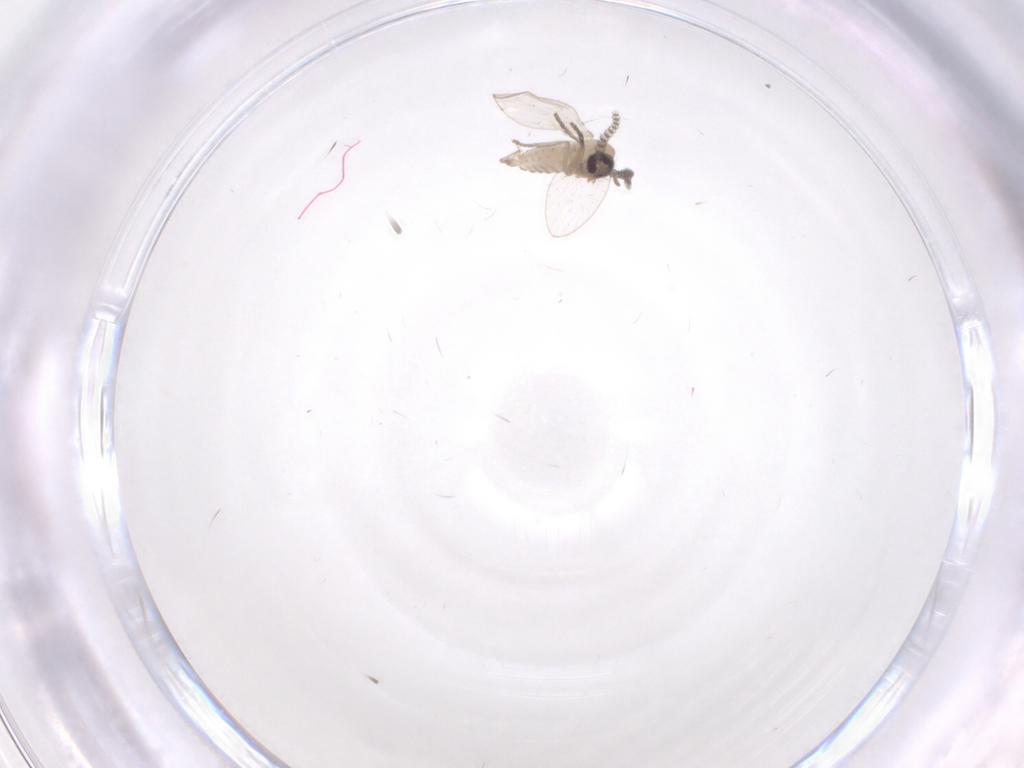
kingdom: Animalia
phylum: Arthropoda
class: Insecta
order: Diptera
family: Psychodidae
